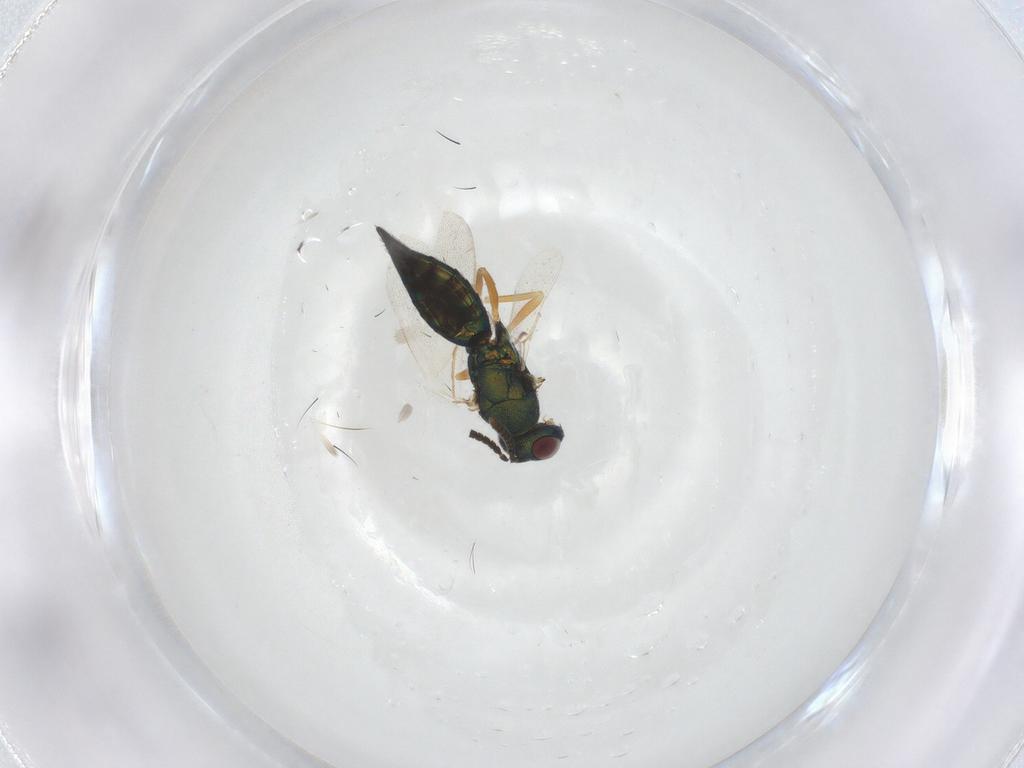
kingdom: Animalia
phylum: Arthropoda
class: Insecta
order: Hymenoptera
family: Pteromalidae
